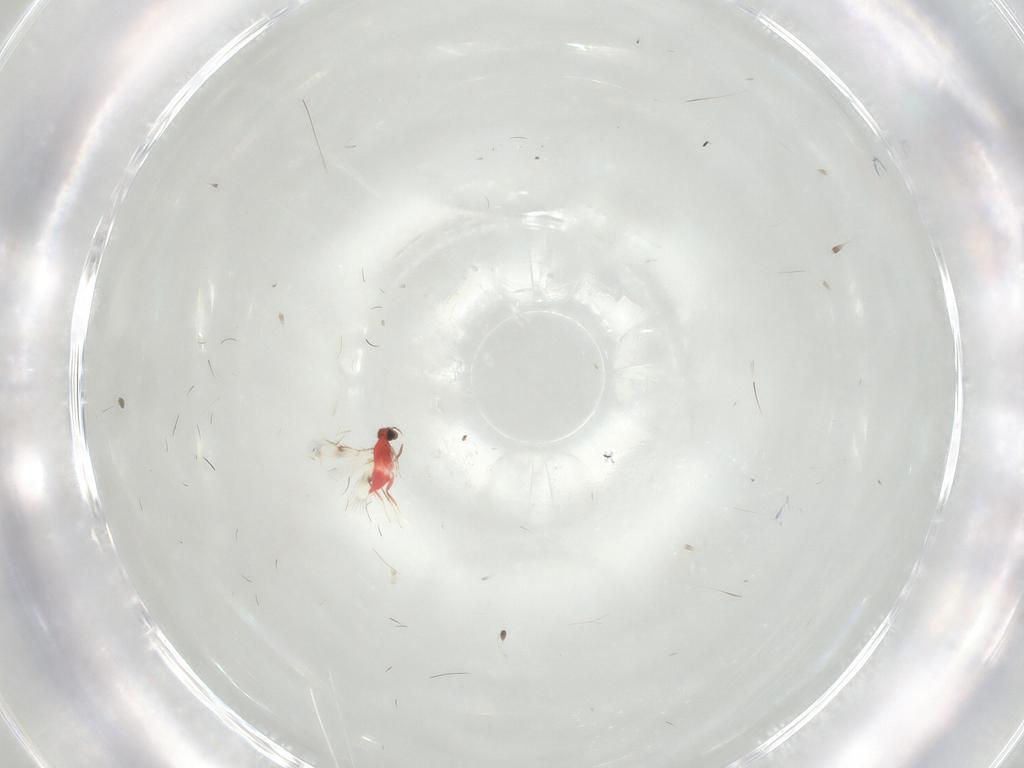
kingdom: Animalia
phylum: Arthropoda
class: Insecta
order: Hymenoptera
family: Trichogrammatidae
